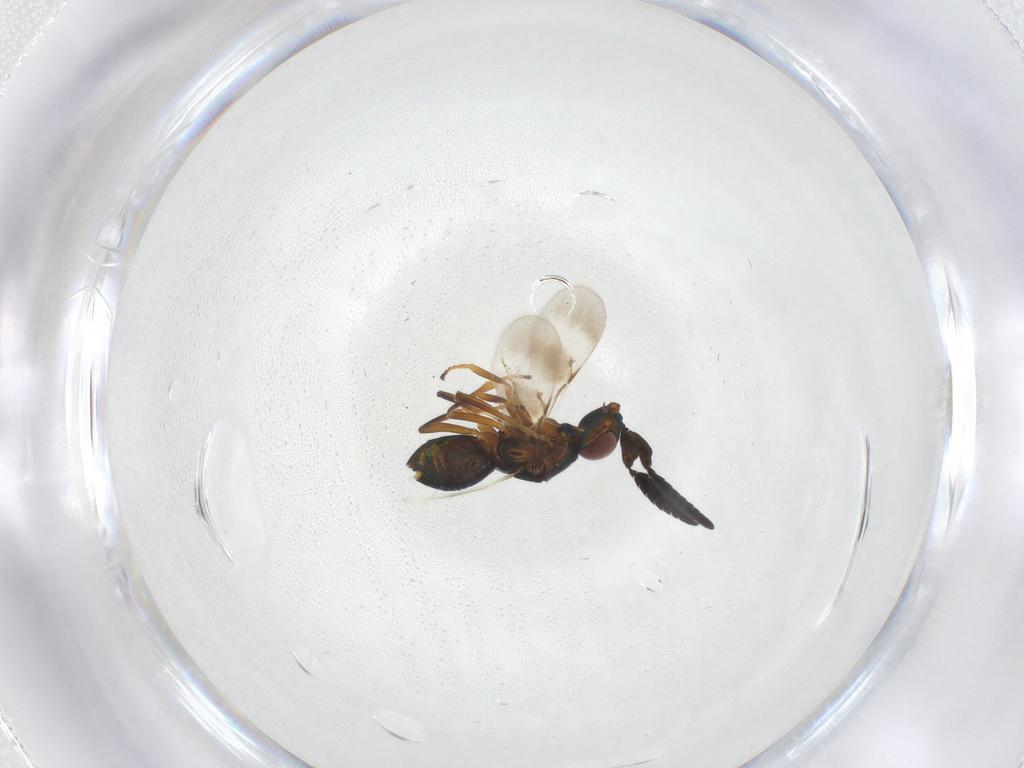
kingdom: Animalia
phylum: Arthropoda
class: Insecta
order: Hymenoptera
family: Encyrtidae
